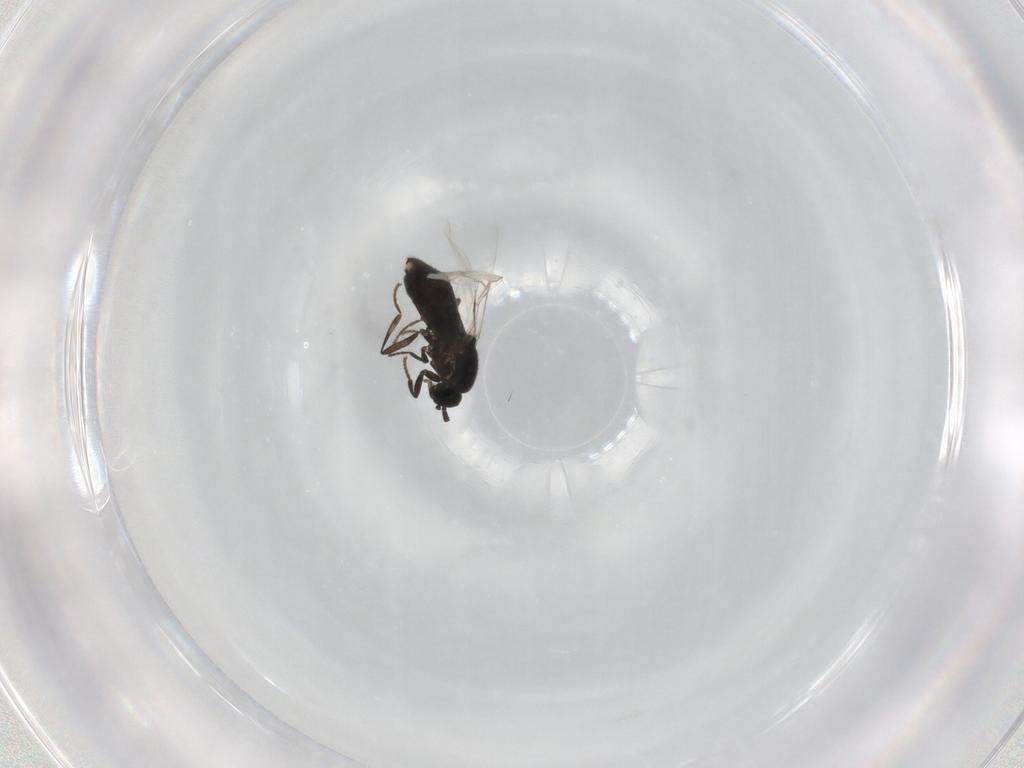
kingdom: Animalia
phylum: Arthropoda
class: Insecta
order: Diptera
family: Scatopsidae
